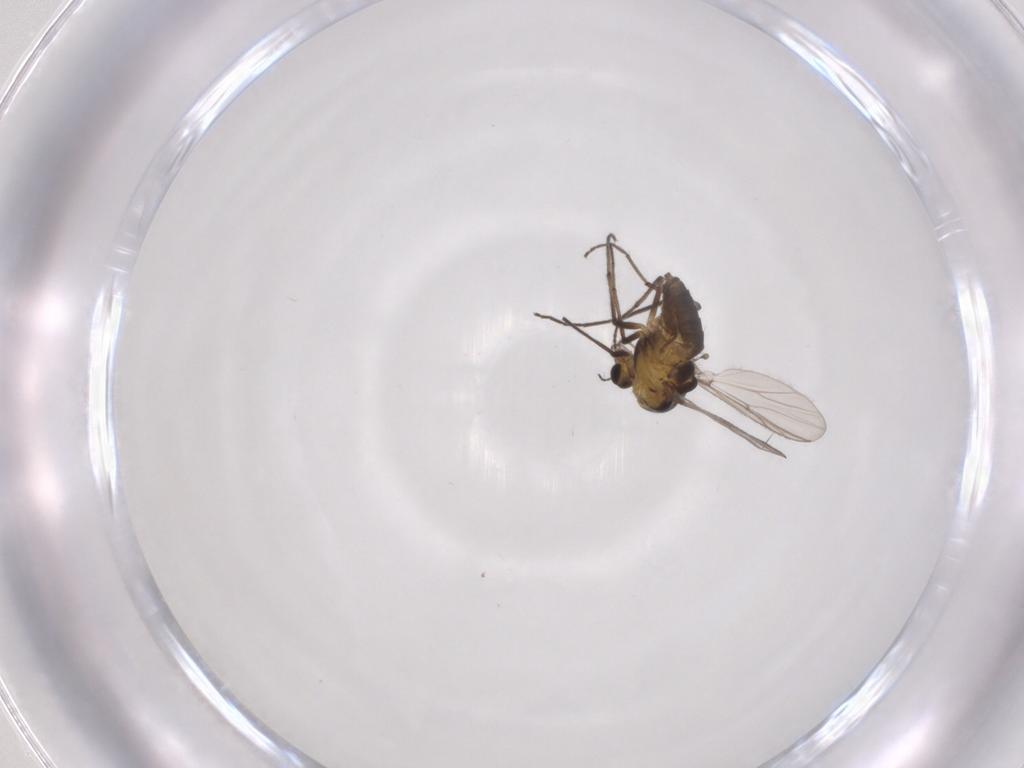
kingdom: Animalia
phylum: Arthropoda
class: Insecta
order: Diptera
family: Chironomidae
